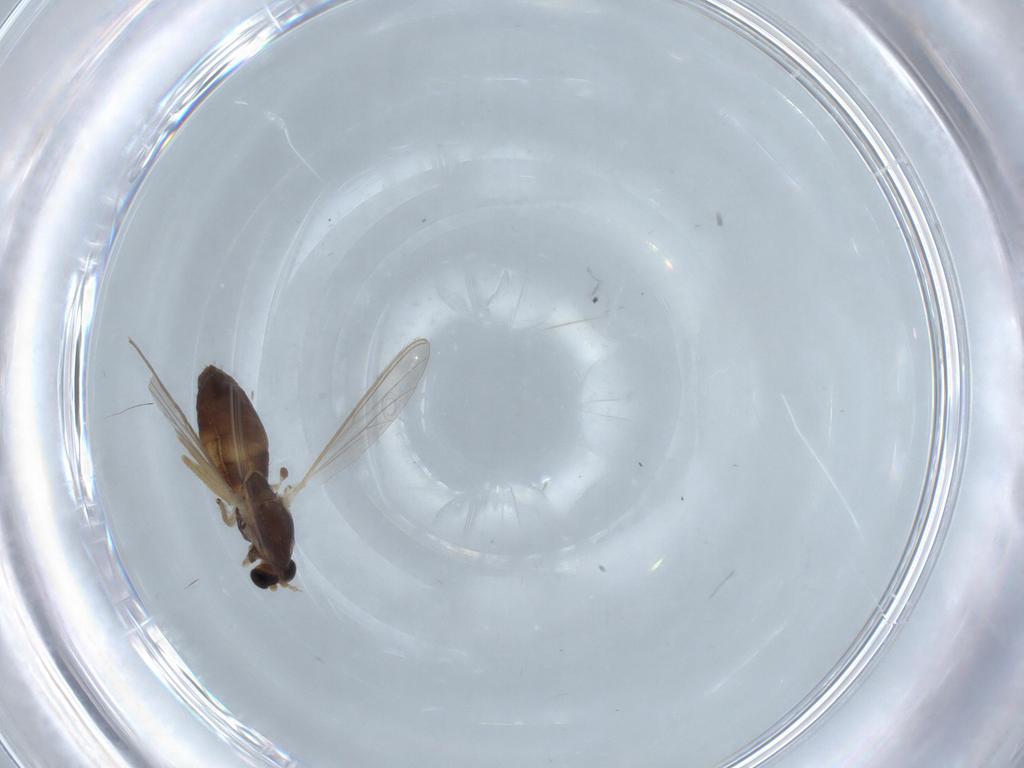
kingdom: Animalia
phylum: Arthropoda
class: Insecta
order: Diptera
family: Chironomidae
